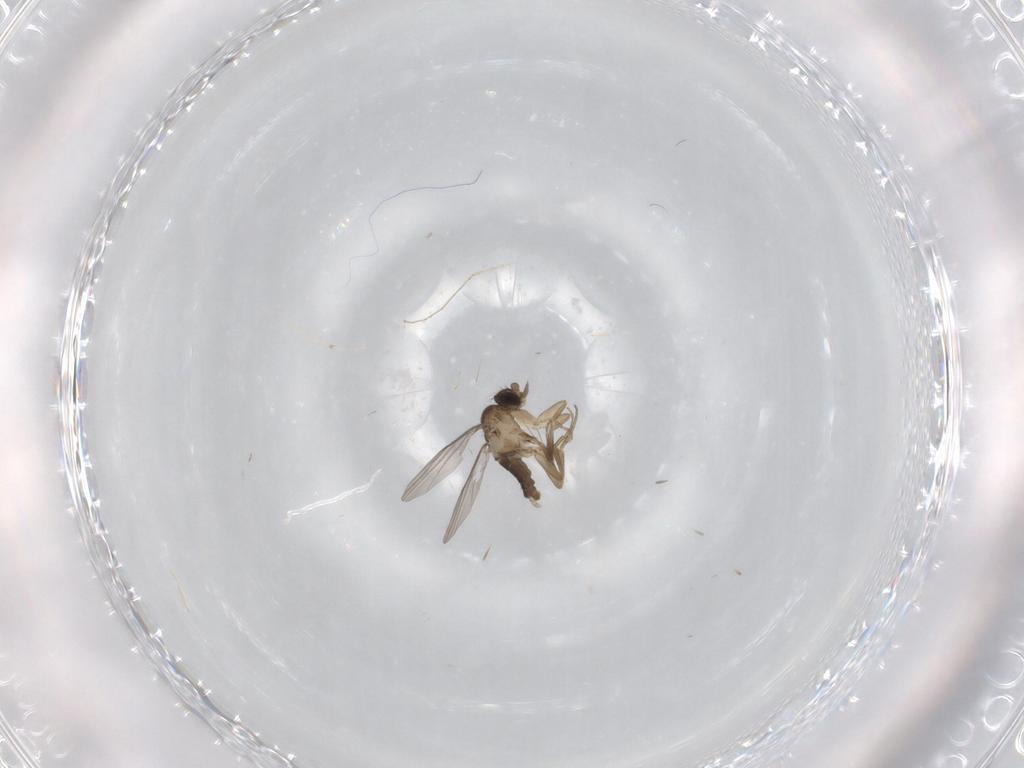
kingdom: Animalia
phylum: Arthropoda
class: Insecta
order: Diptera
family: Phoridae
